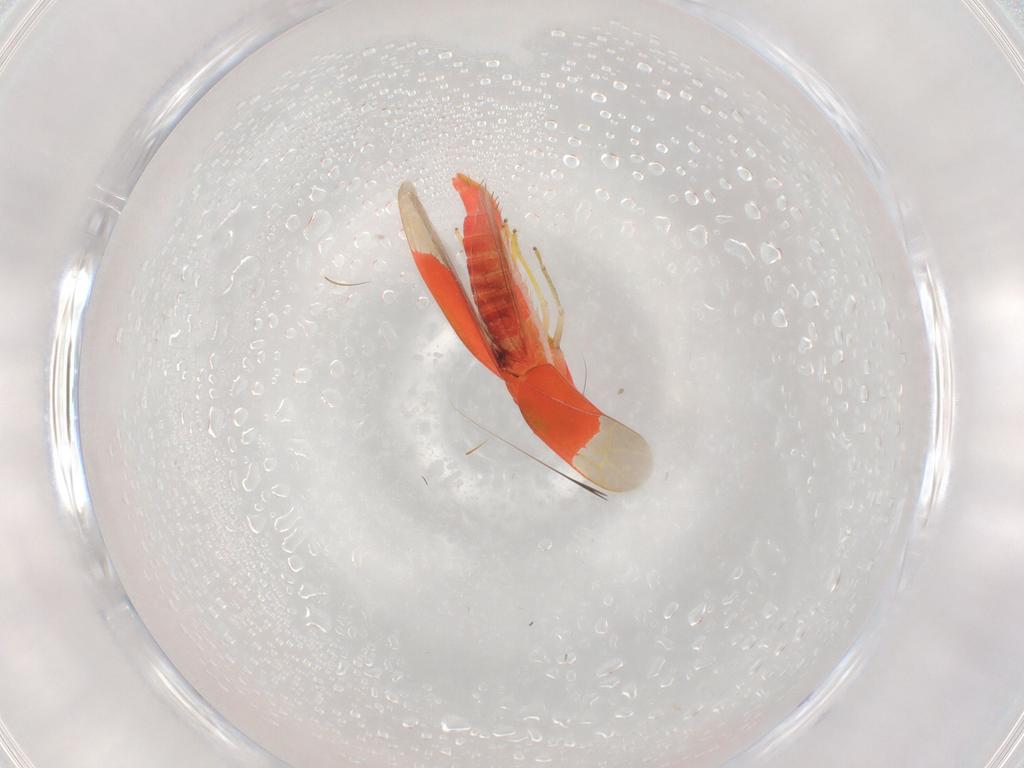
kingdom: Animalia
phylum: Arthropoda
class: Insecta
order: Hemiptera
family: Cicadellidae
